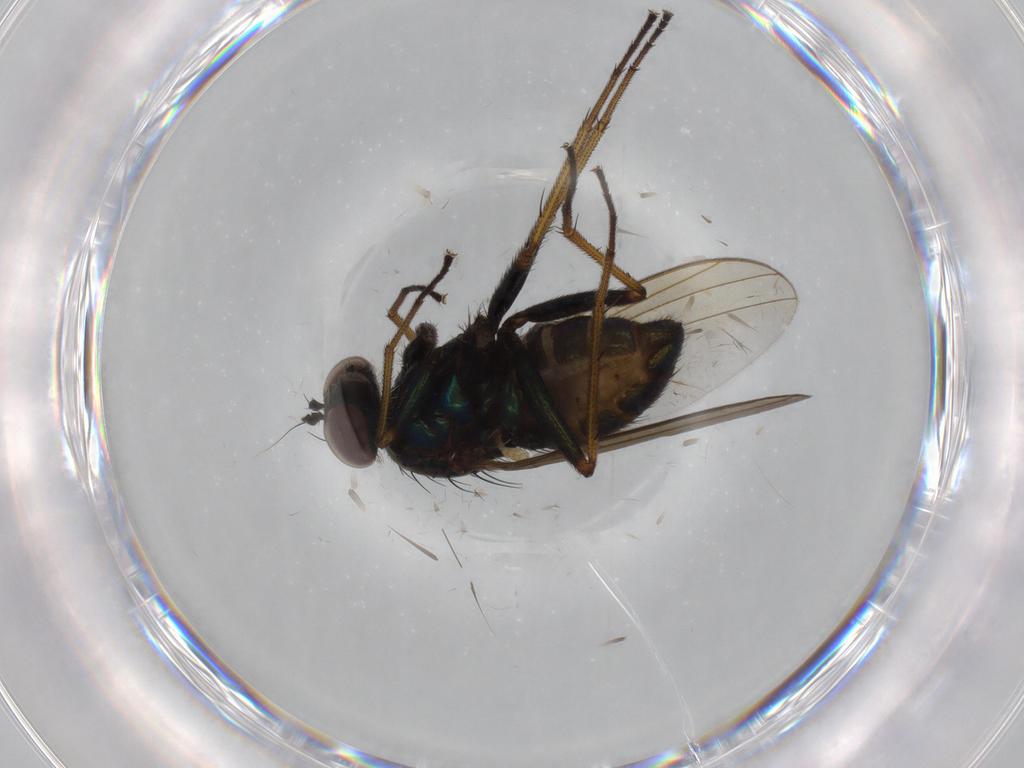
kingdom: Animalia
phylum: Arthropoda
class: Insecta
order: Diptera
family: Dolichopodidae
